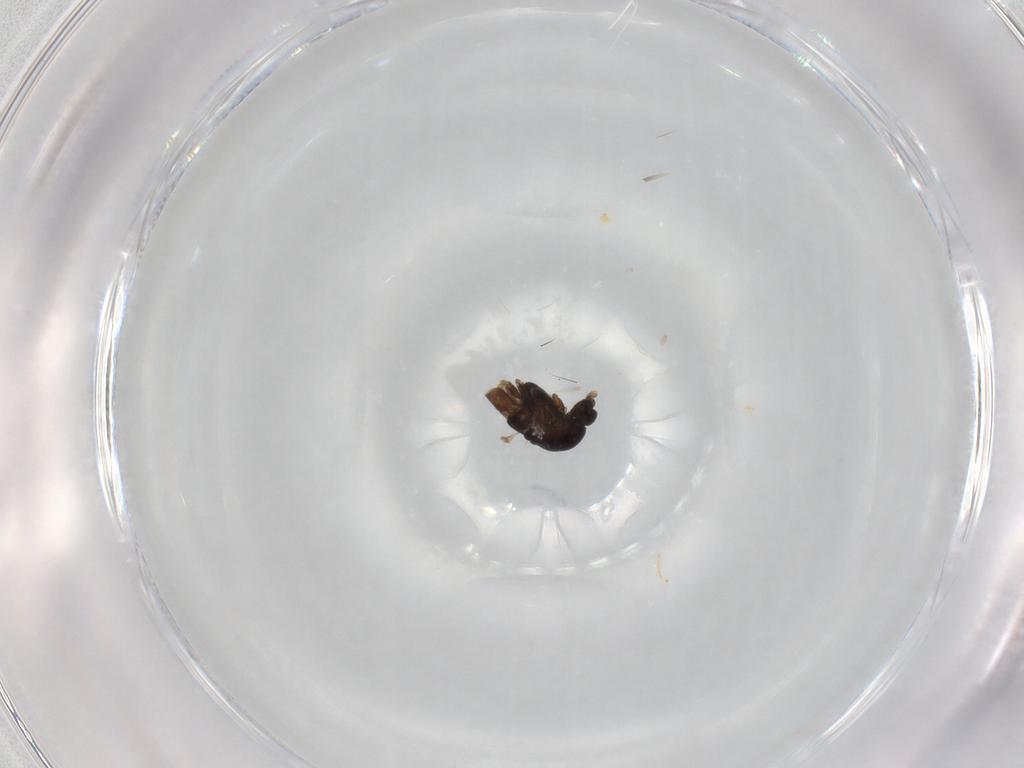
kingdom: Animalia
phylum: Arthropoda
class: Insecta
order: Diptera
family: Chironomidae
